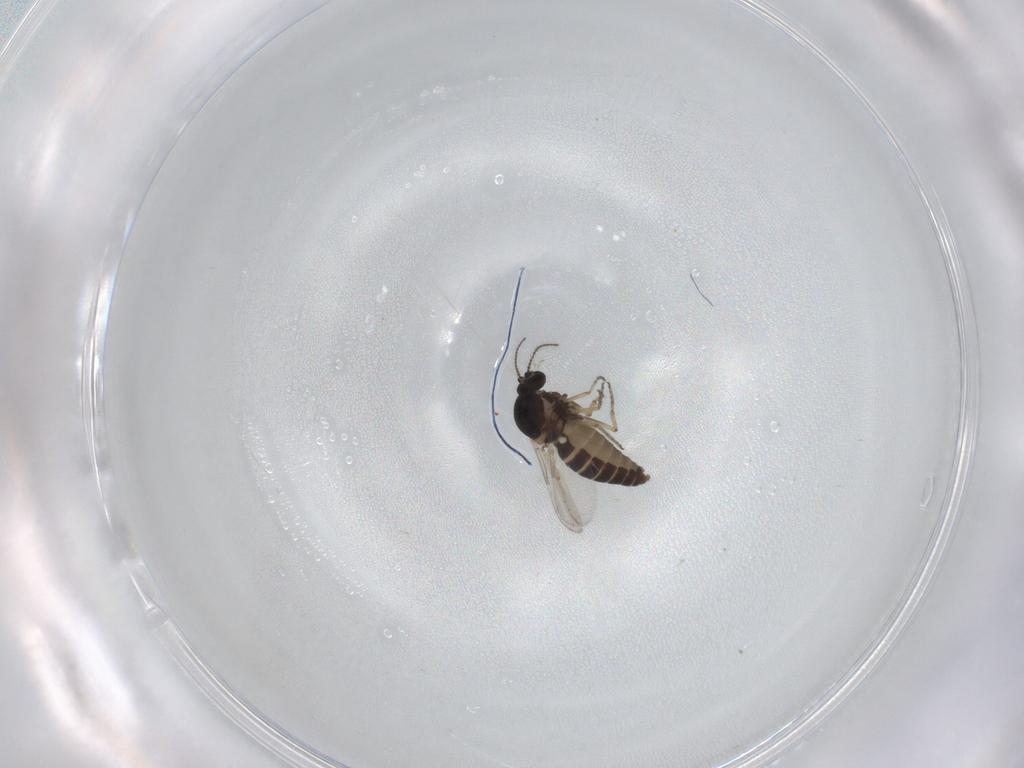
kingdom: Animalia
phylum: Arthropoda
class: Insecta
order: Diptera
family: Ceratopogonidae
